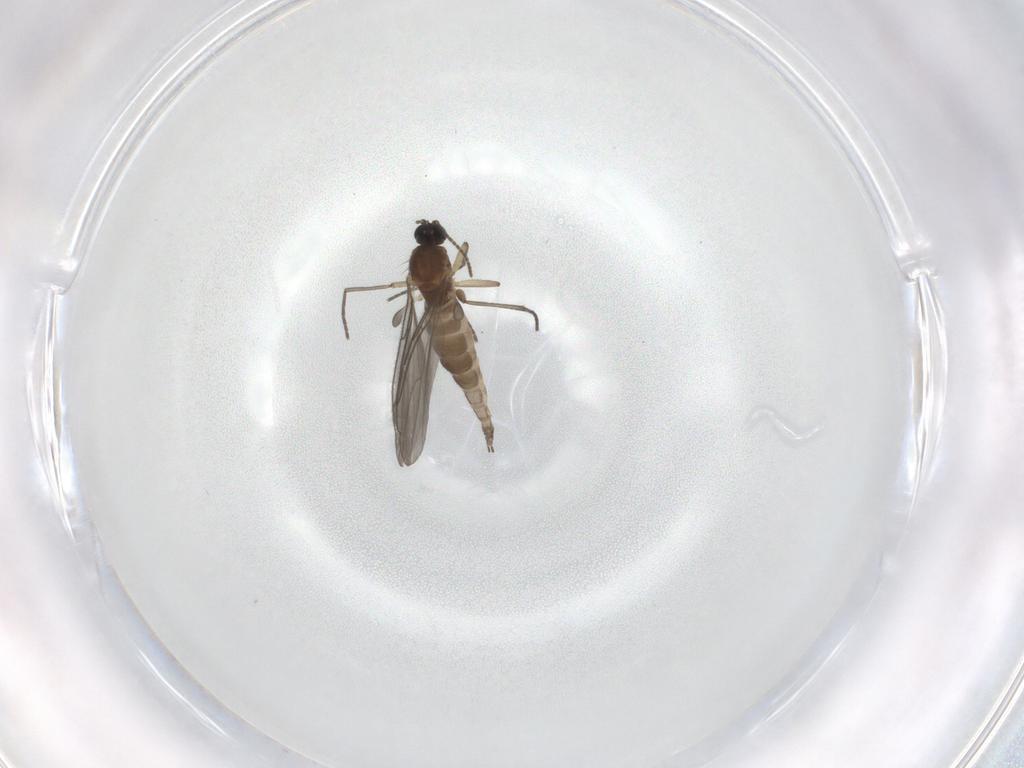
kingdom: Animalia
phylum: Arthropoda
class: Insecta
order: Diptera
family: Sciaridae
